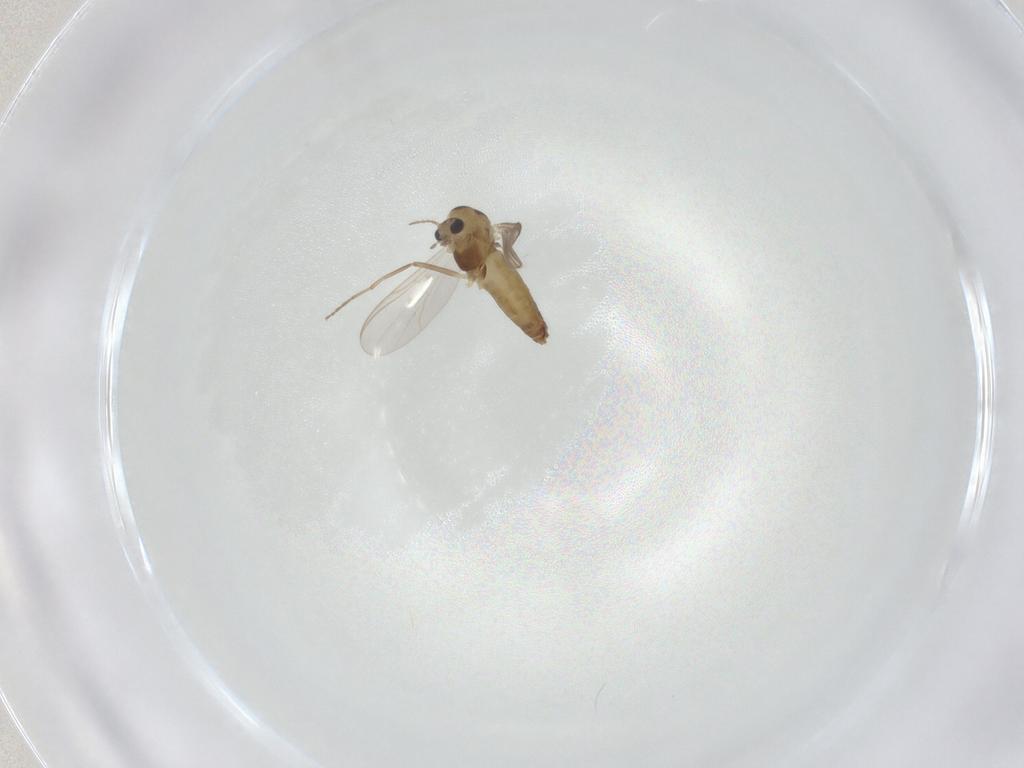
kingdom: Animalia
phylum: Arthropoda
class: Insecta
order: Diptera
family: Chironomidae
